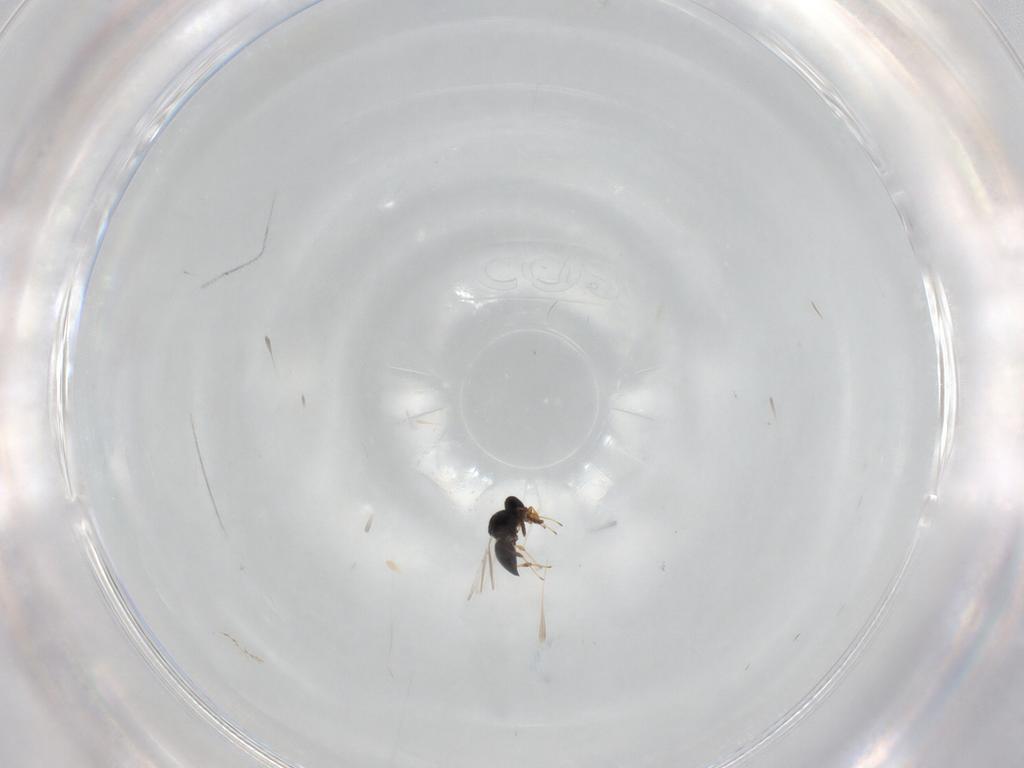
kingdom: Animalia
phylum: Arthropoda
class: Insecta
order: Hymenoptera
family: Platygastridae
